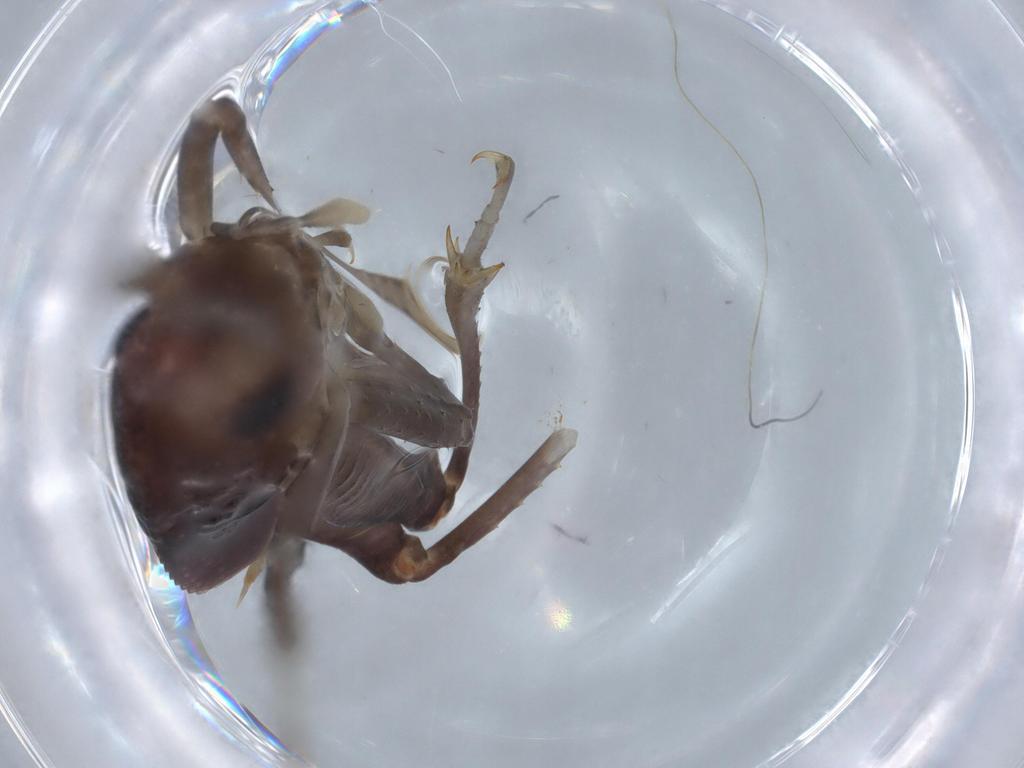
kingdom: Animalia
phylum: Arthropoda
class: Insecta
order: Orthoptera
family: Anostostomatidae
